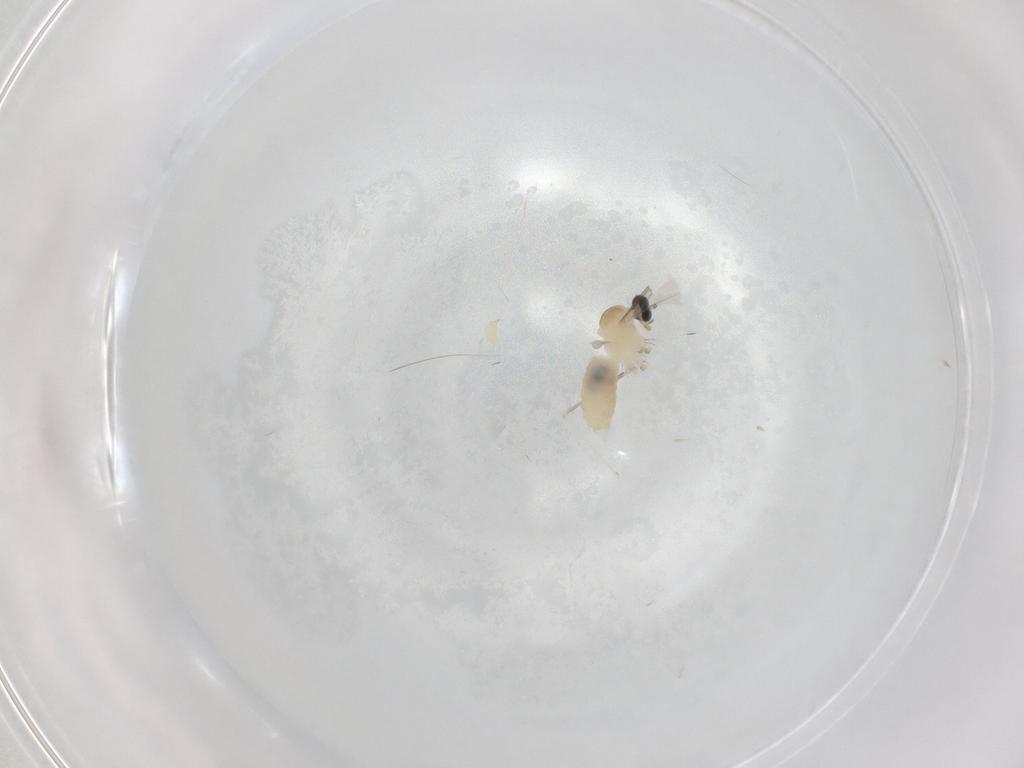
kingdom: Animalia
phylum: Arthropoda
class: Insecta
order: Diptera
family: Cecidomyiidae
